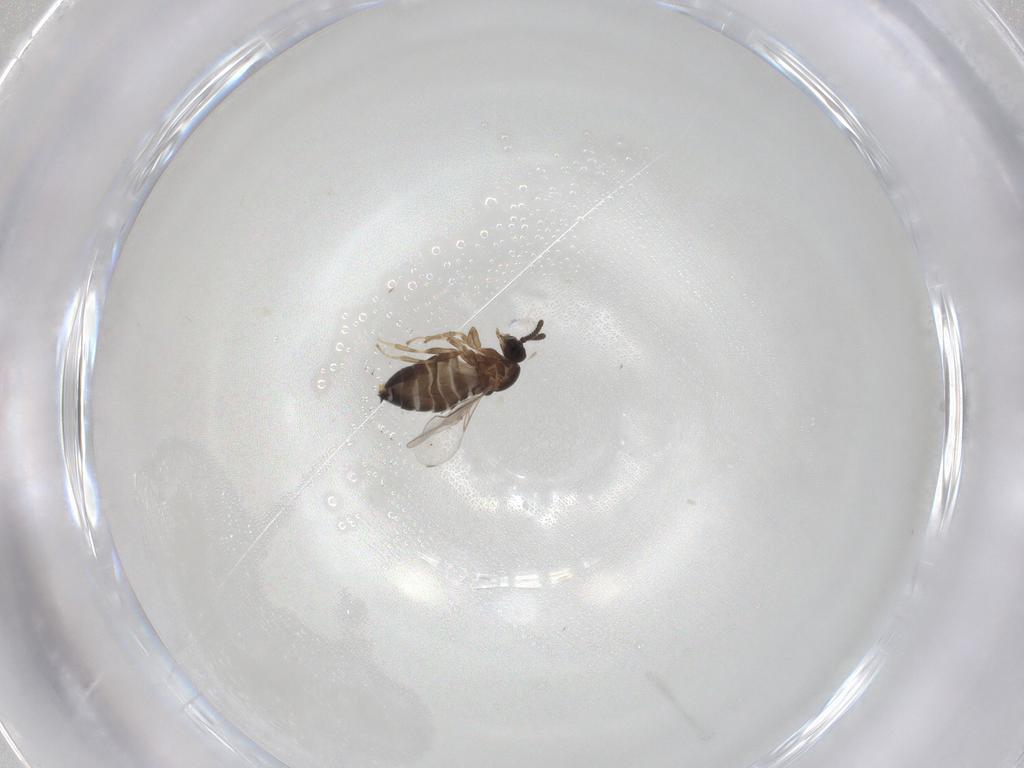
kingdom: Animalia
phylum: Arthropoda
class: Insecta
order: Diptera
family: Scatopsidae
